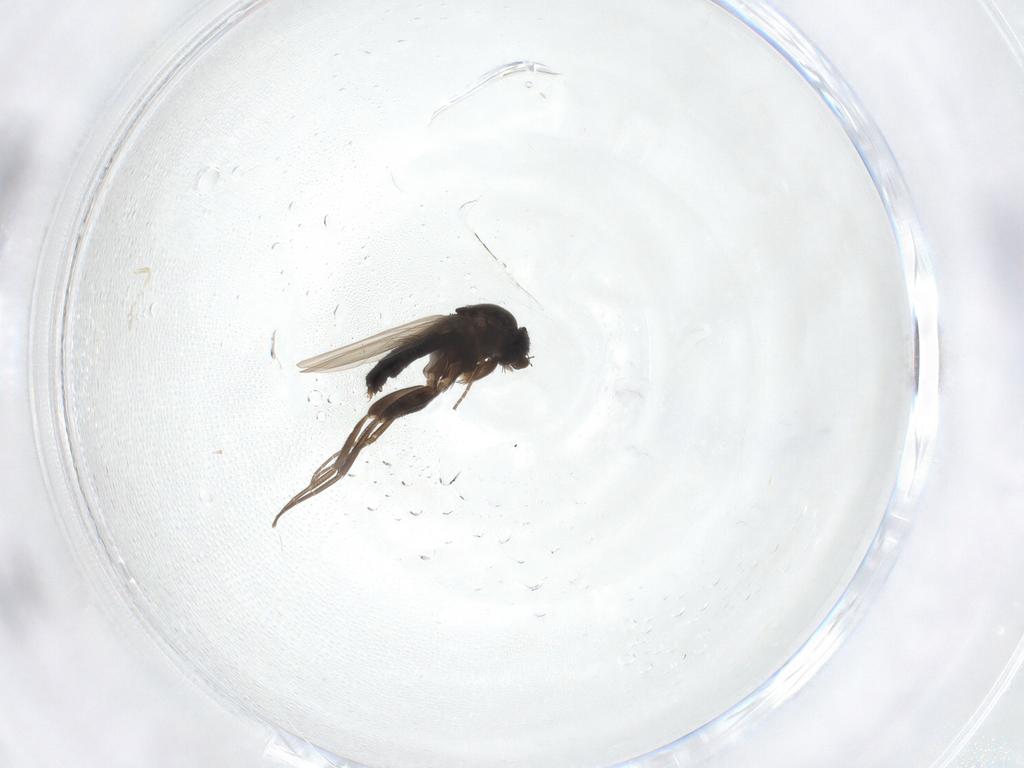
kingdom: Animalia
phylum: Arthropoda
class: Insecta
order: Diptera
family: Phoridae
